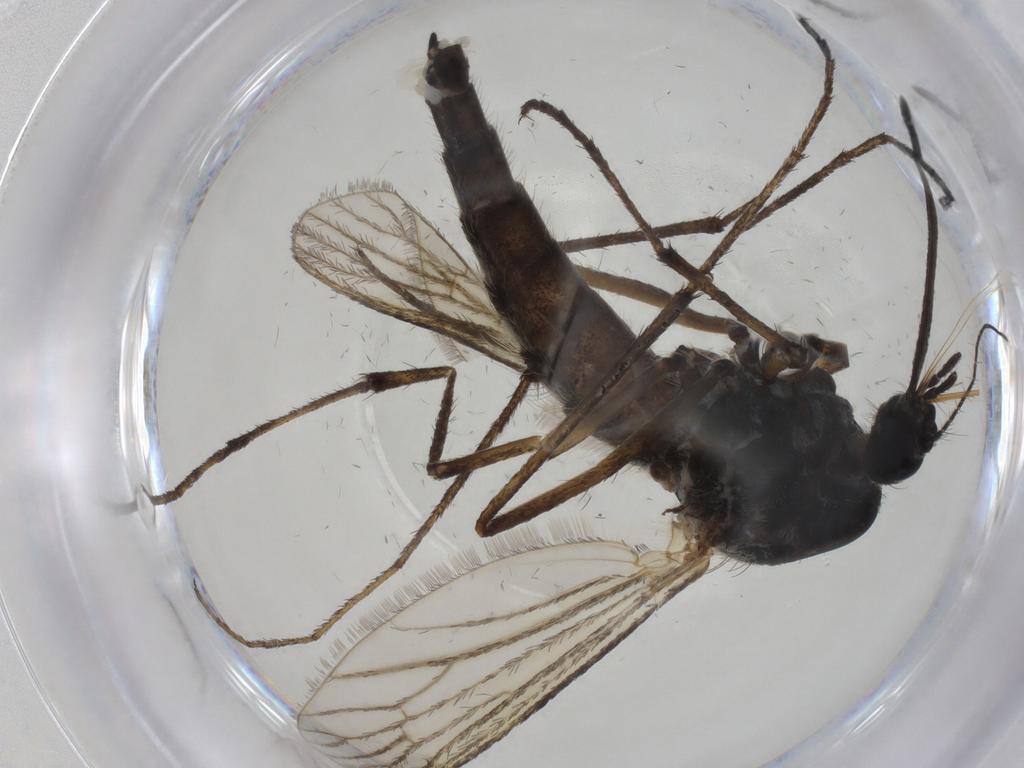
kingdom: Animalia
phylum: Arthropoda
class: Insecta
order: Diptera
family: Culicidae
